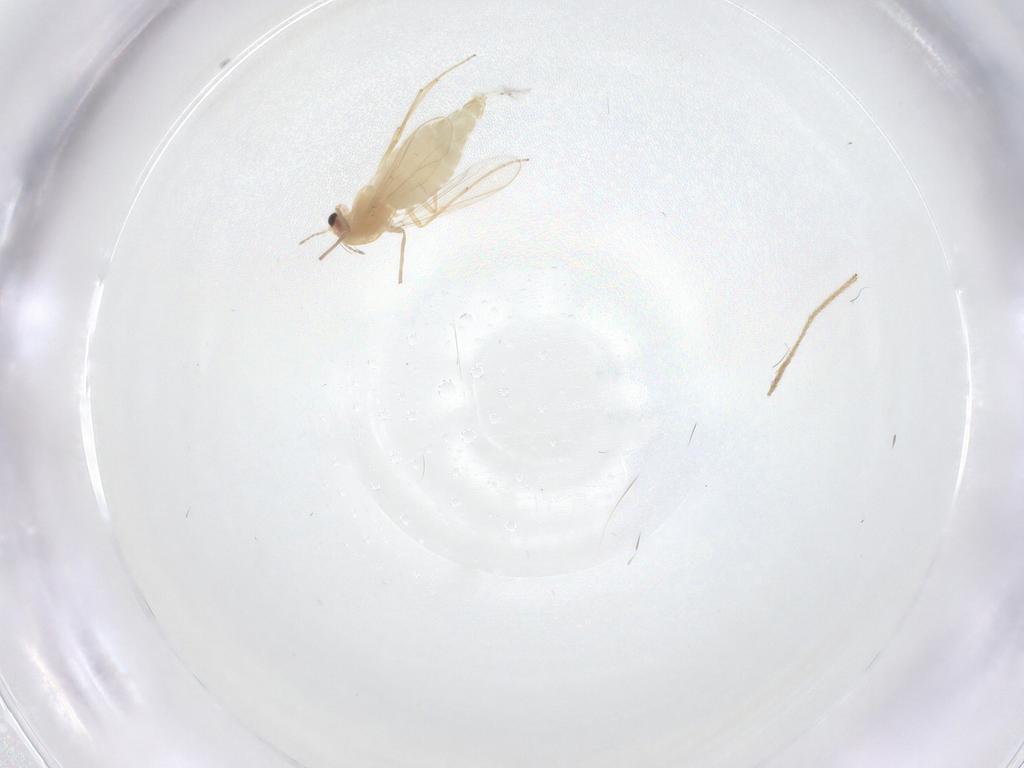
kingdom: Animalia
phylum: Arthropoda
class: Insecta
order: Diptera
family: Chironomidae
